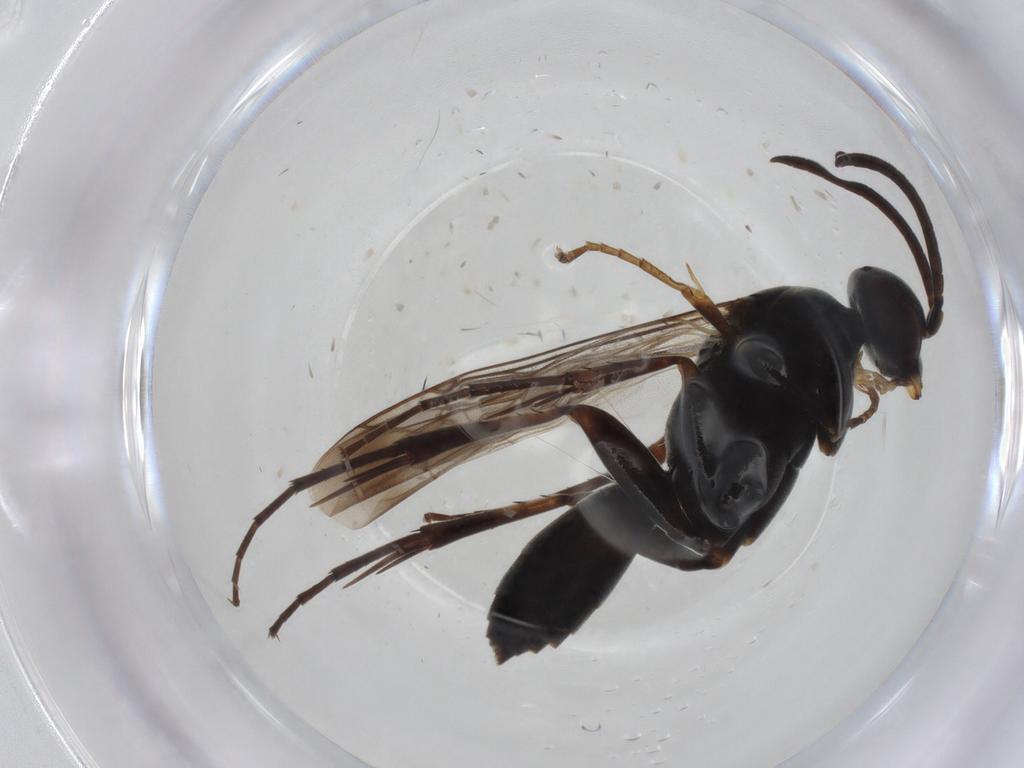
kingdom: Animalia
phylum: Arthropoda
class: Insecta
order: Hymenoptera
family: Pompilidae
